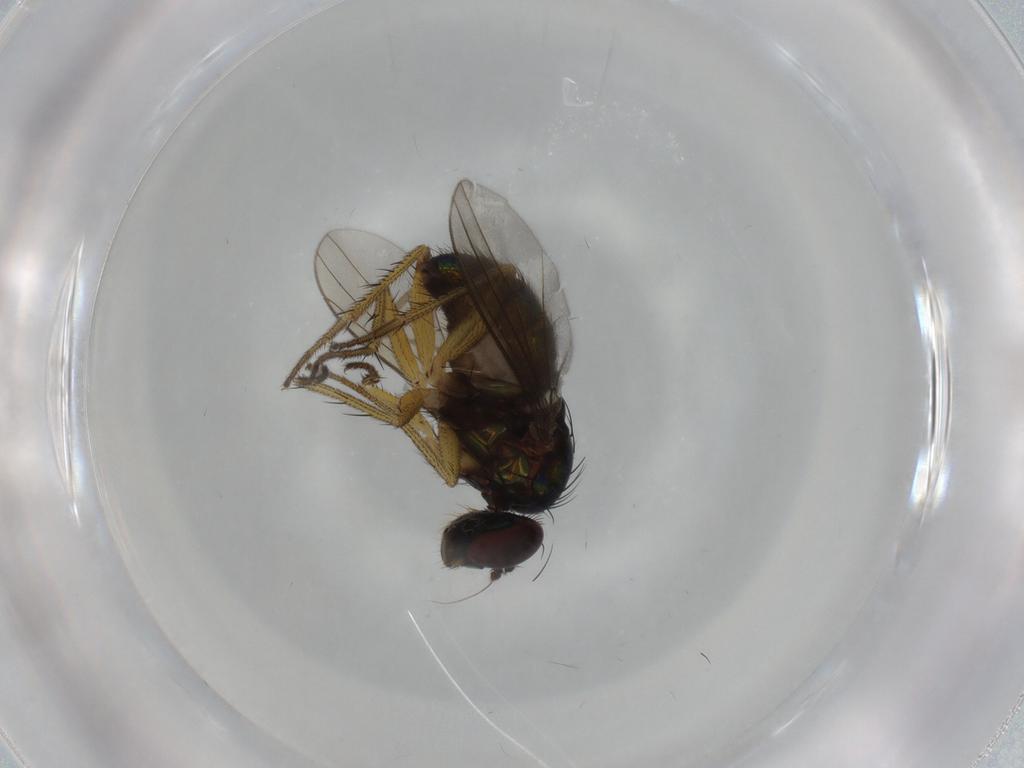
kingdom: Animalia
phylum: Arthropoda
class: Insecta
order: Diptera
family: Dolichopodidae
